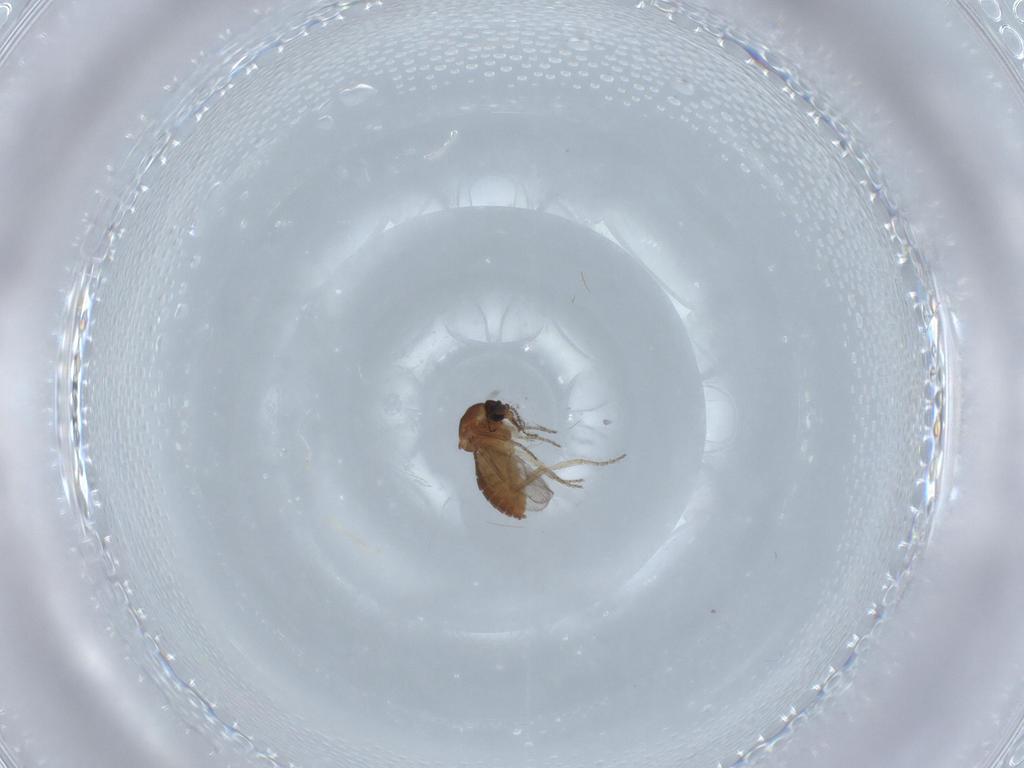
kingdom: Animalia
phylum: Arthropoda
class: Insecta
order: Diptera
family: Ceratopogonidae
